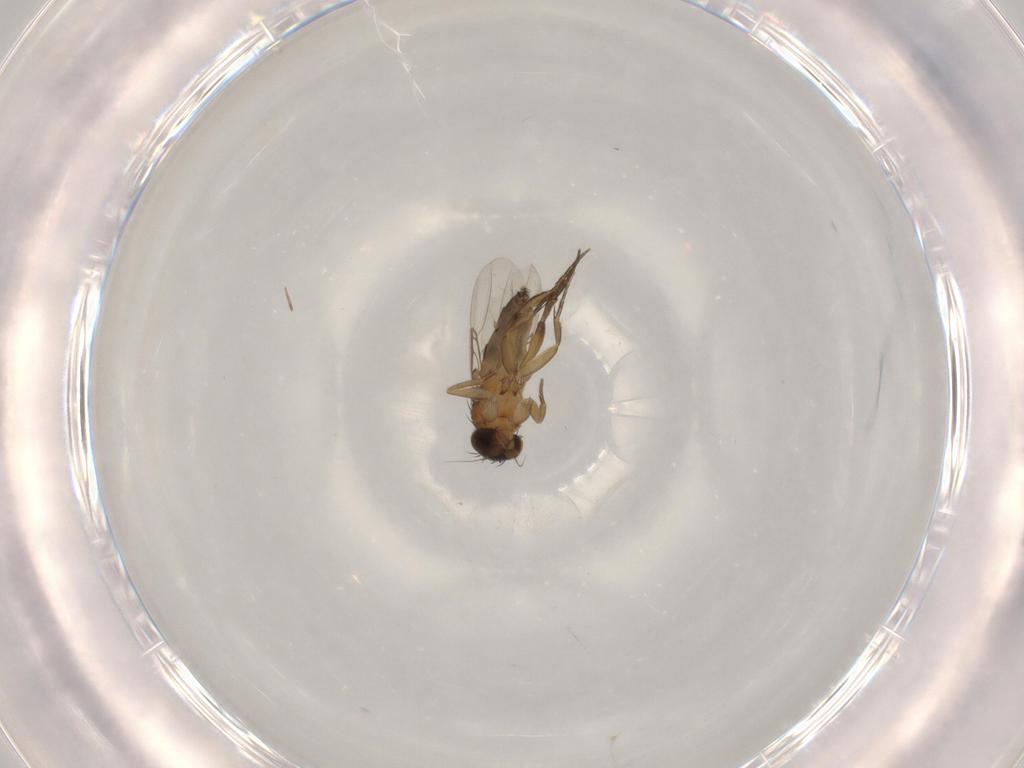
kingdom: Animalia
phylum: Arthropoda
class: Insecta
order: Diptera
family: Phoridae
